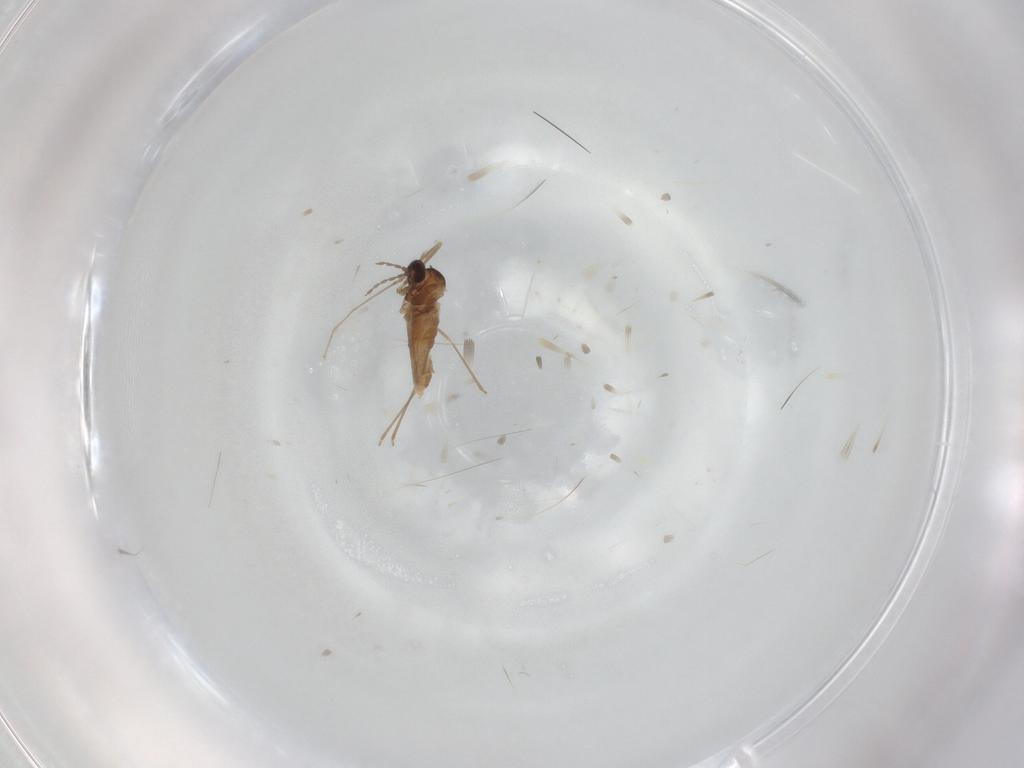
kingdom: Animalia
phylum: Arthropoda
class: Insecta
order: Diptera
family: Cecidomyiidae
